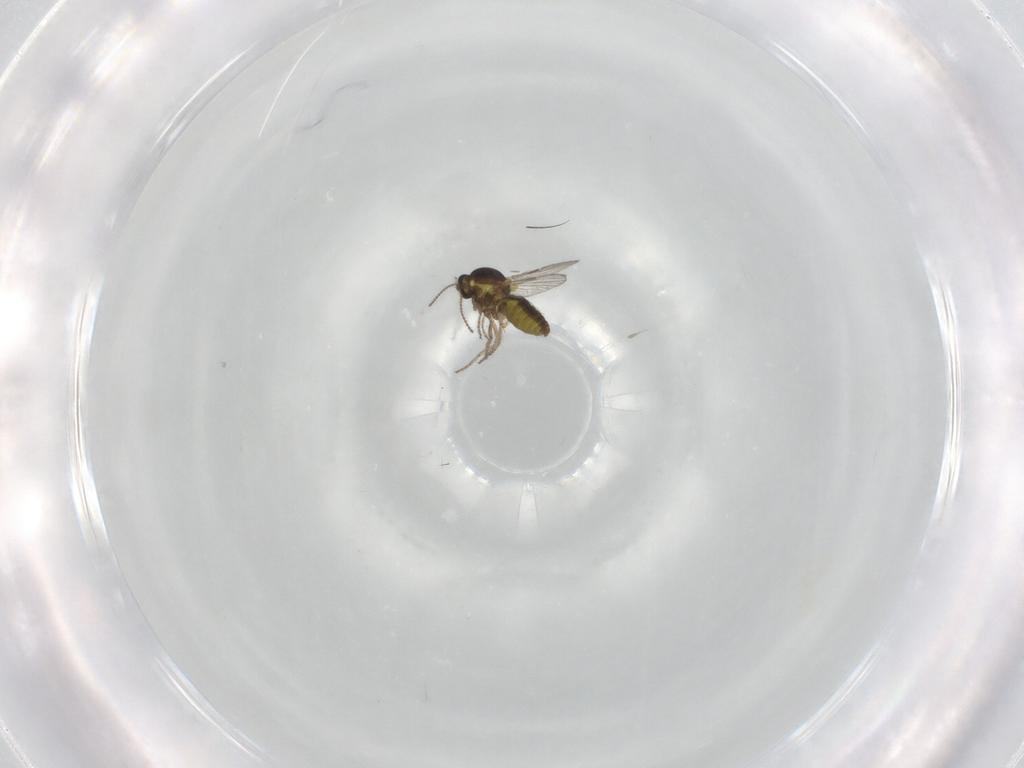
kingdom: Animalia
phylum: Arthropoda
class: Insecta
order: Diptera
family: Ceratopogonidae
